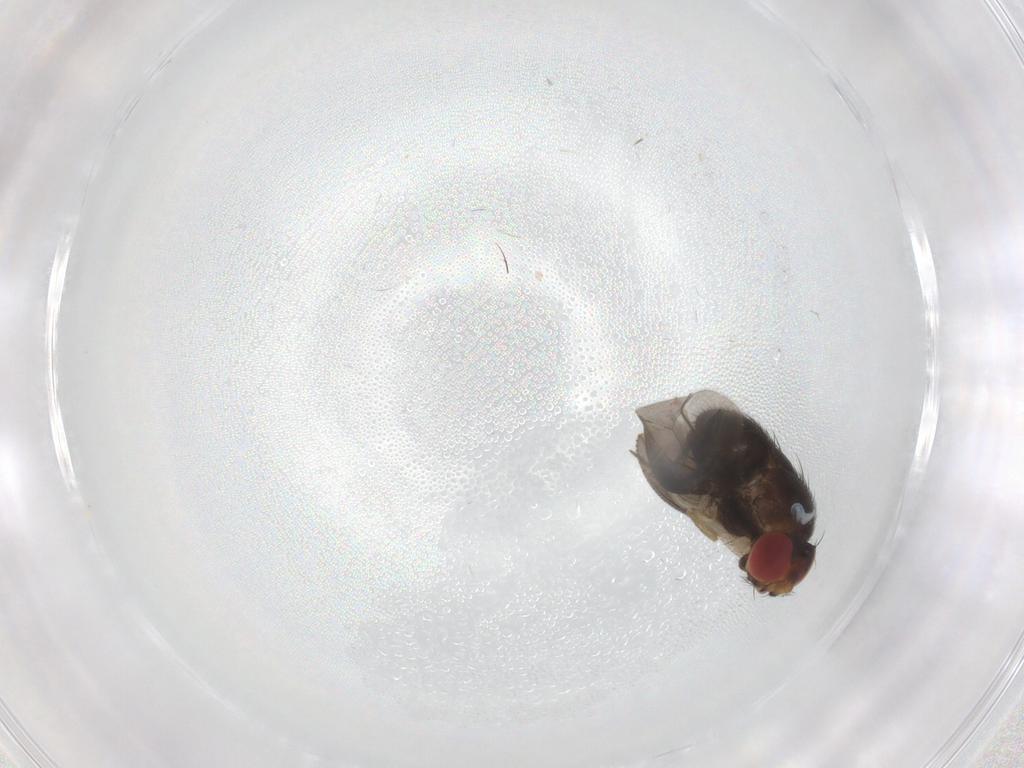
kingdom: Animalia
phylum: Arthropoda
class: Insecta
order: Diptera
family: Sciaridae
